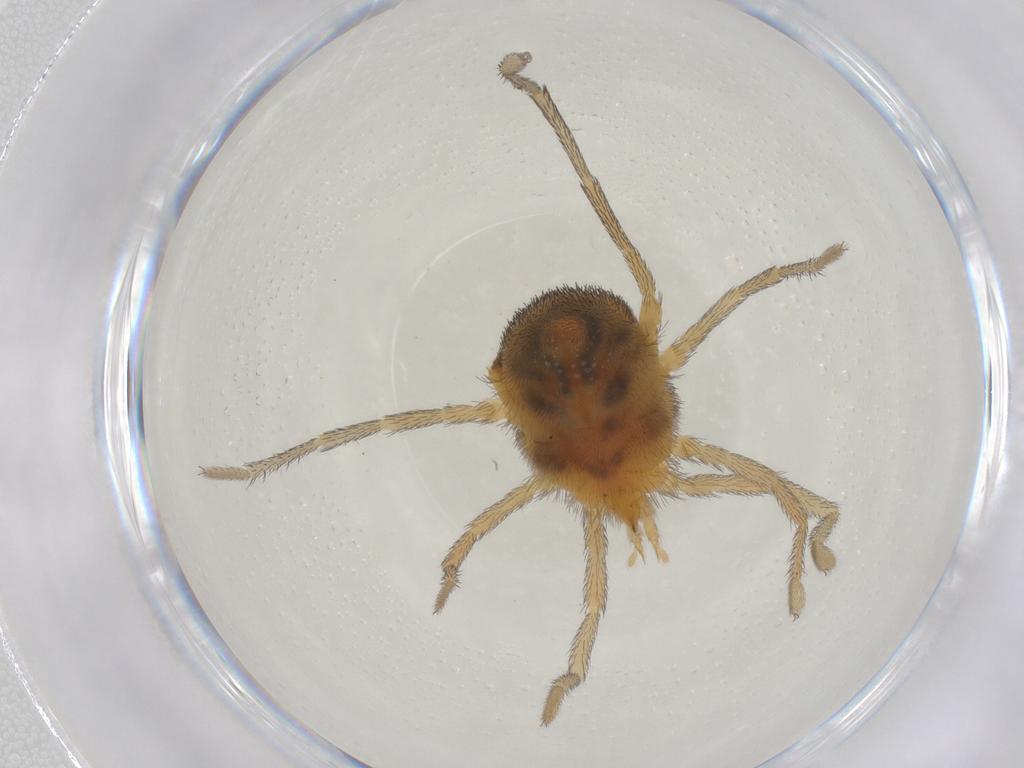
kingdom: Animalia
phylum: Arthropoda
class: Arachnida
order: Trombidiformes
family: Erythraeidae
